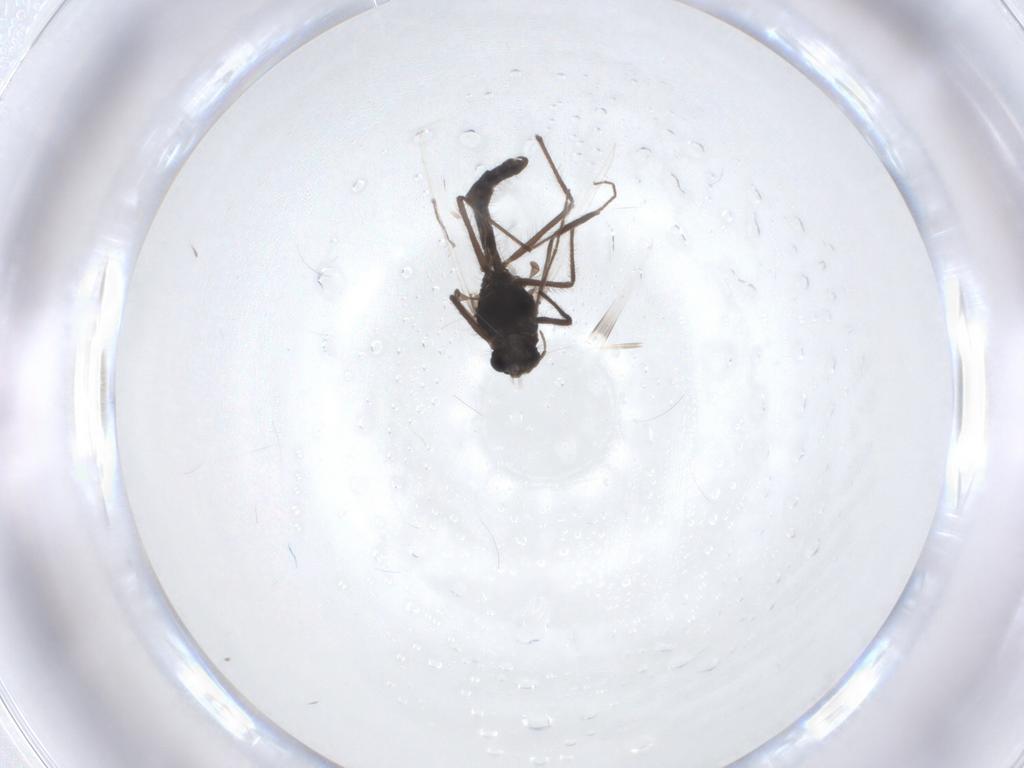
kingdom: Animalia
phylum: Arthropoda
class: Insecta
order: Diptera
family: Chironomidae
